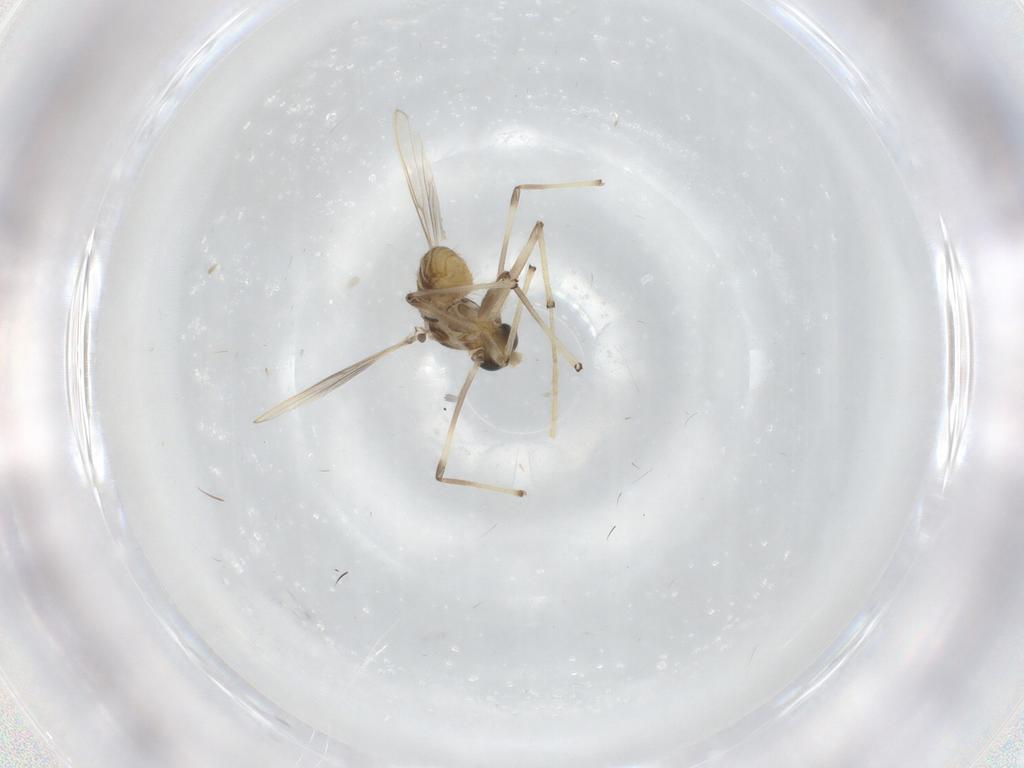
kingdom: Animalia
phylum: Arthropoda
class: Insecta
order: Diptera
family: Chironomidae
